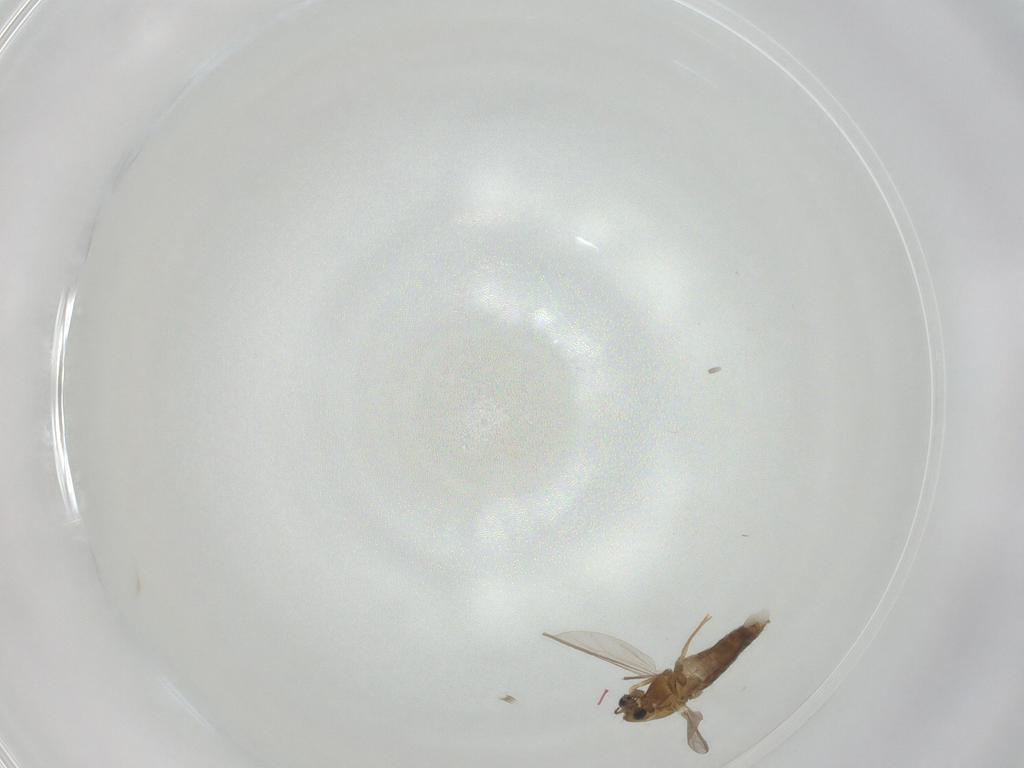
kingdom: Animalia
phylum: Arthropoda
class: Insecta
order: Diptera
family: Chironomidae
